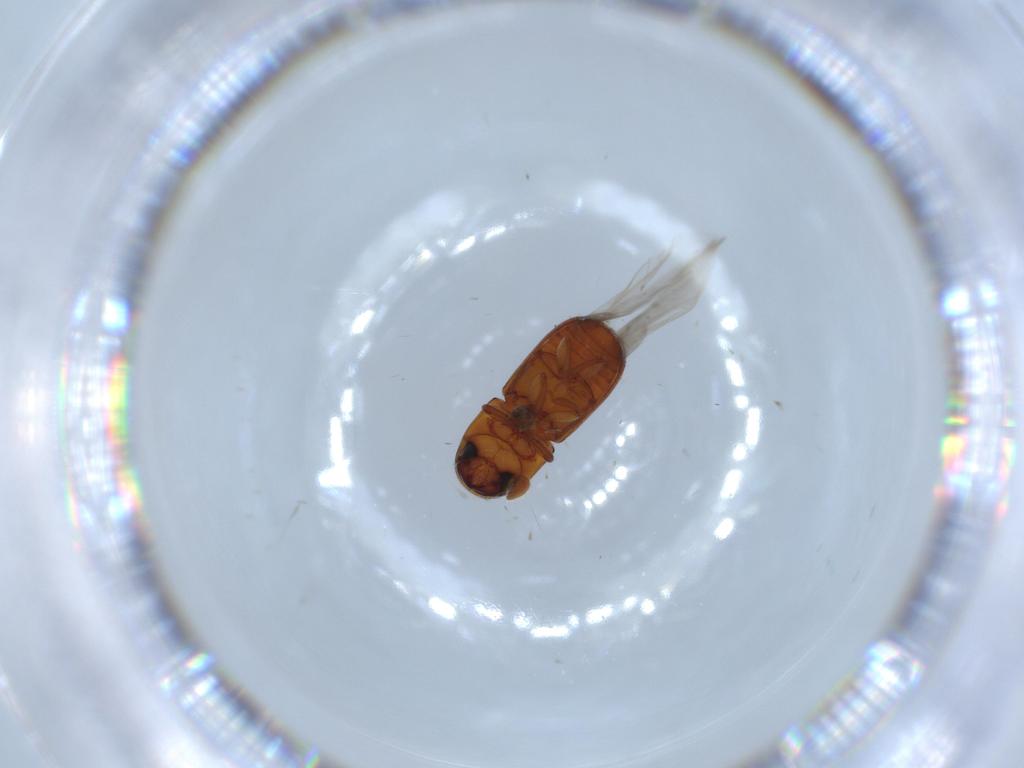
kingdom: Animalia
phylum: Arthropoda
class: Insecta
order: Coleoptera
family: Curculionidae
